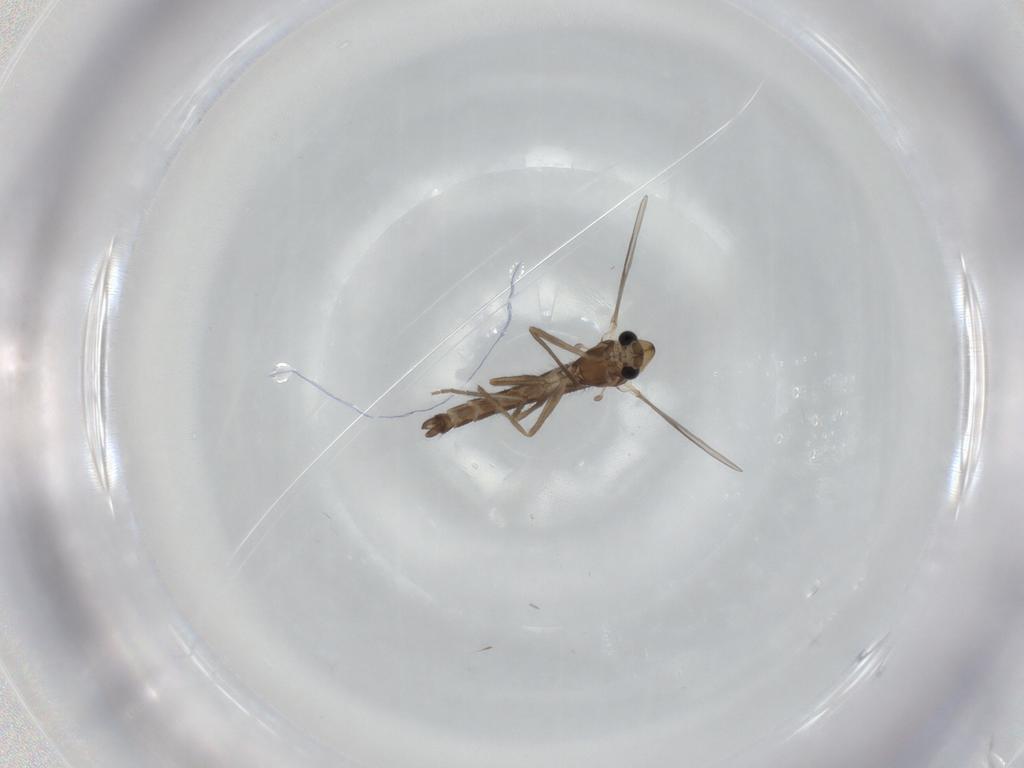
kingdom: Animalia
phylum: Arthropoda
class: Insecta
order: Diptera
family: Chironomidae
